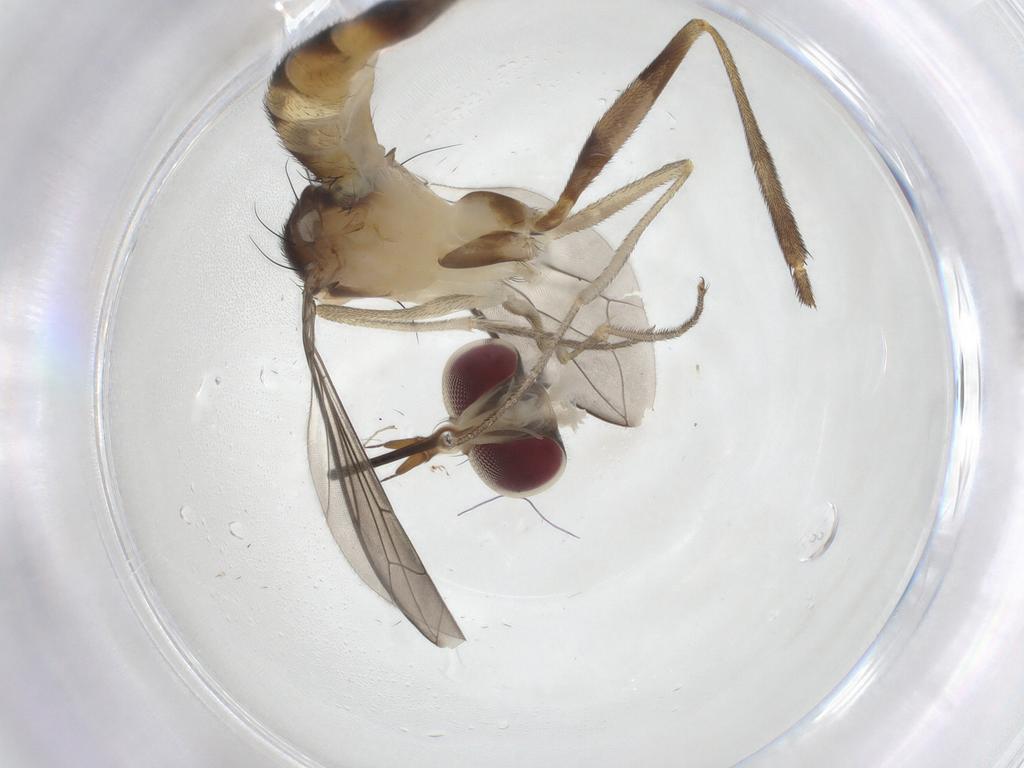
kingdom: Animalia
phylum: Arthropoda
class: Insecta
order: Diptera
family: Conopidae
